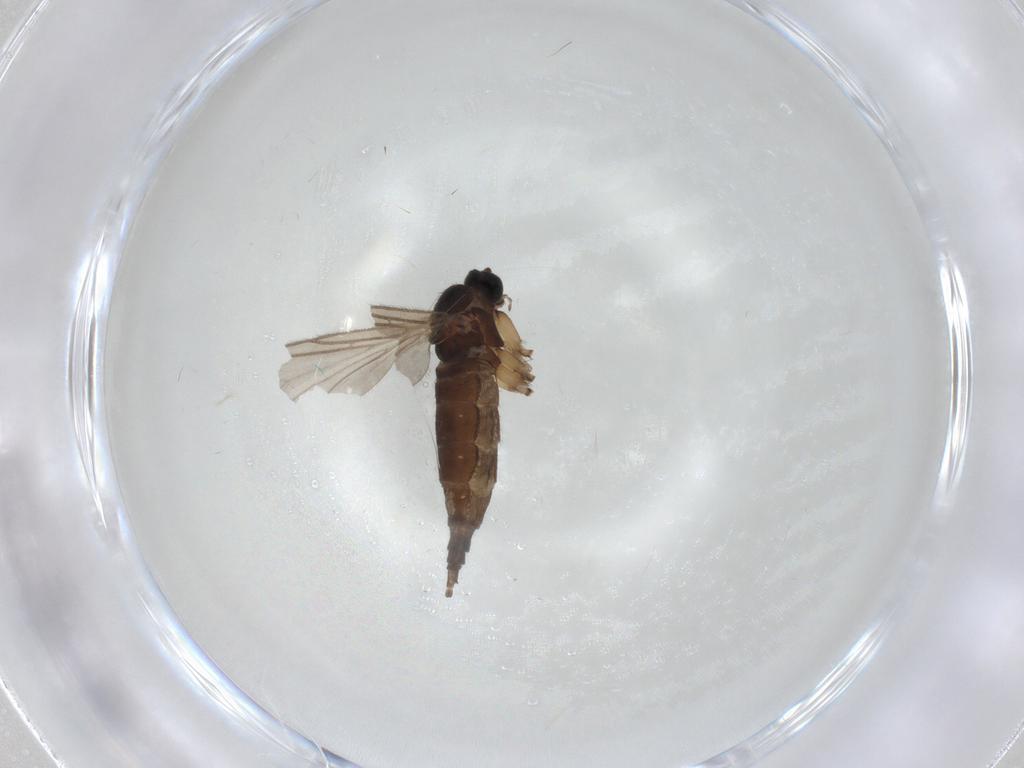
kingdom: Animalia
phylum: Arthropoda
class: Insecta
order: Diptera
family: Sciaridae
